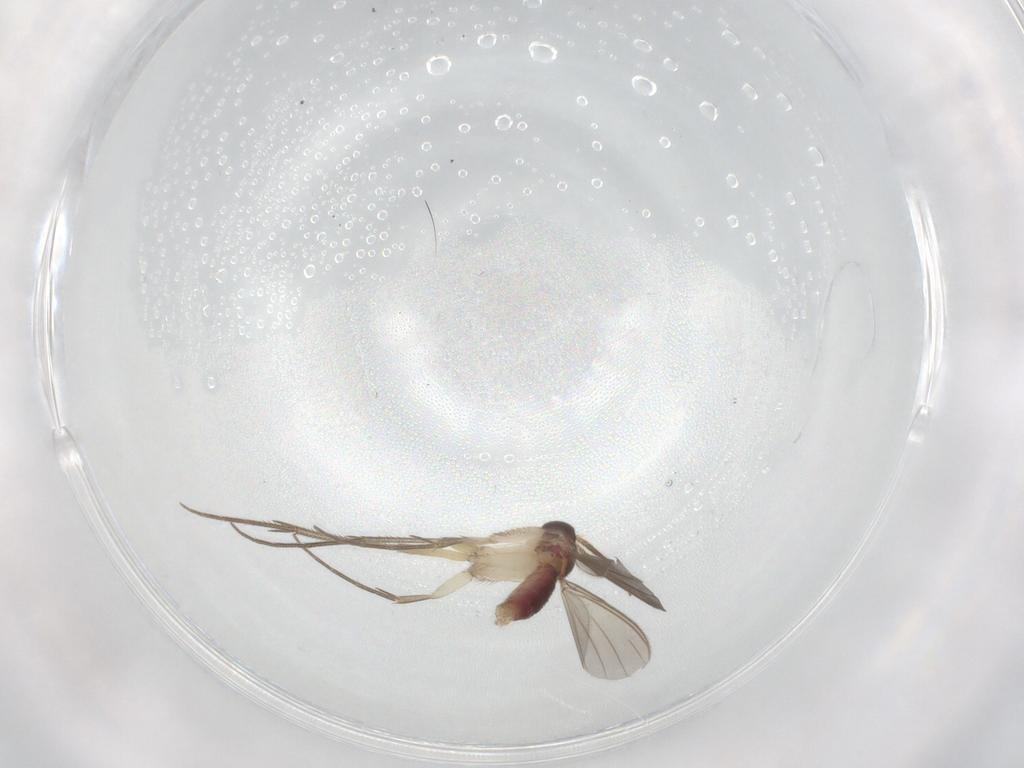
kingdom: Animalia
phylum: Arthropoda
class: Insecta
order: Diptera
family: Mycetophilidae
